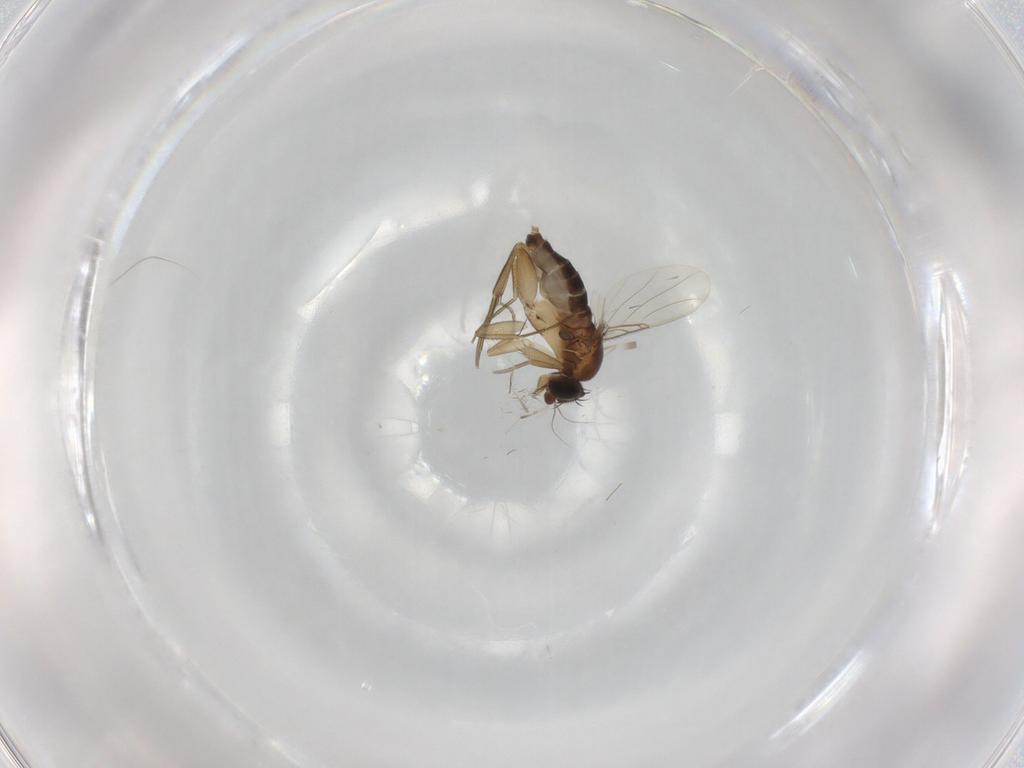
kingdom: Animalia
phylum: Arthropoda
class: Insecta
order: Diptera
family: Phoridae
